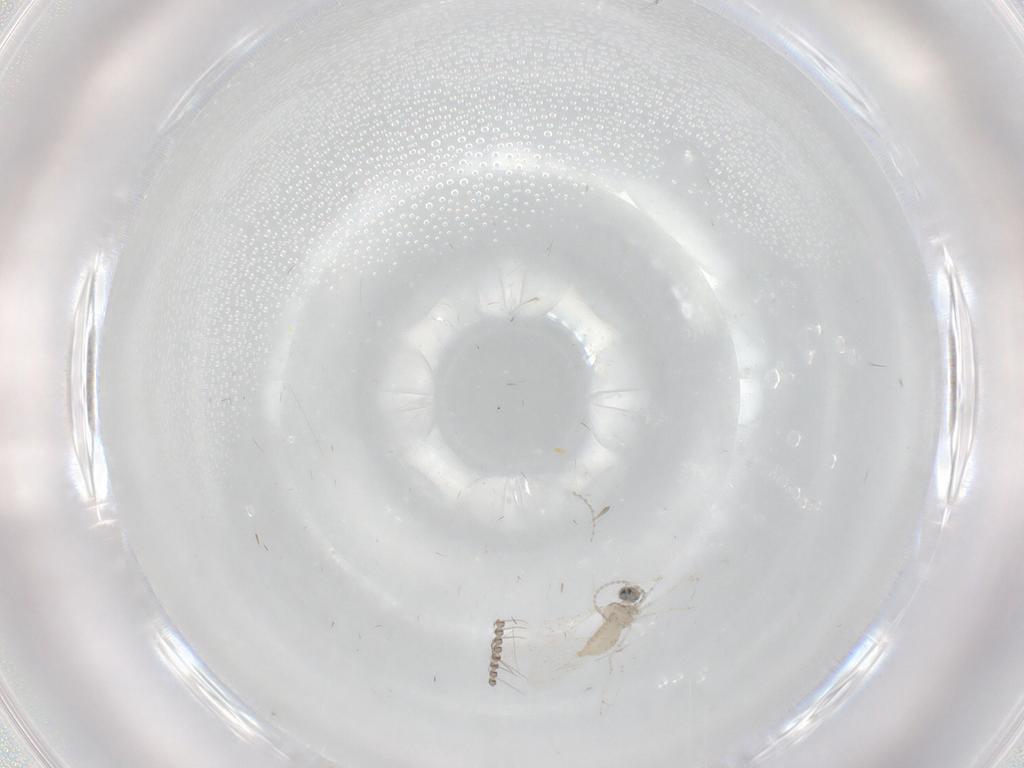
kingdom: Animalia
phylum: Arthropoda
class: Insecta
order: Diptera
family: Psychodidae
